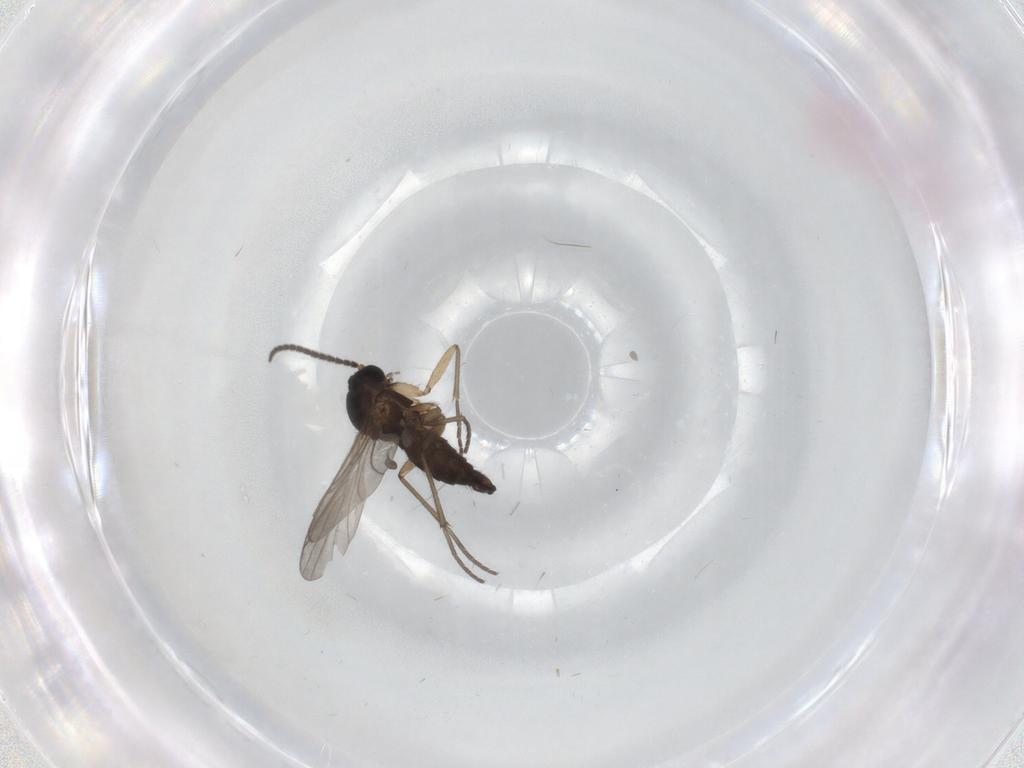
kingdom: Animalia
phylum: Arthropoda
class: Insecta
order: Diptera
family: Sciaridae
